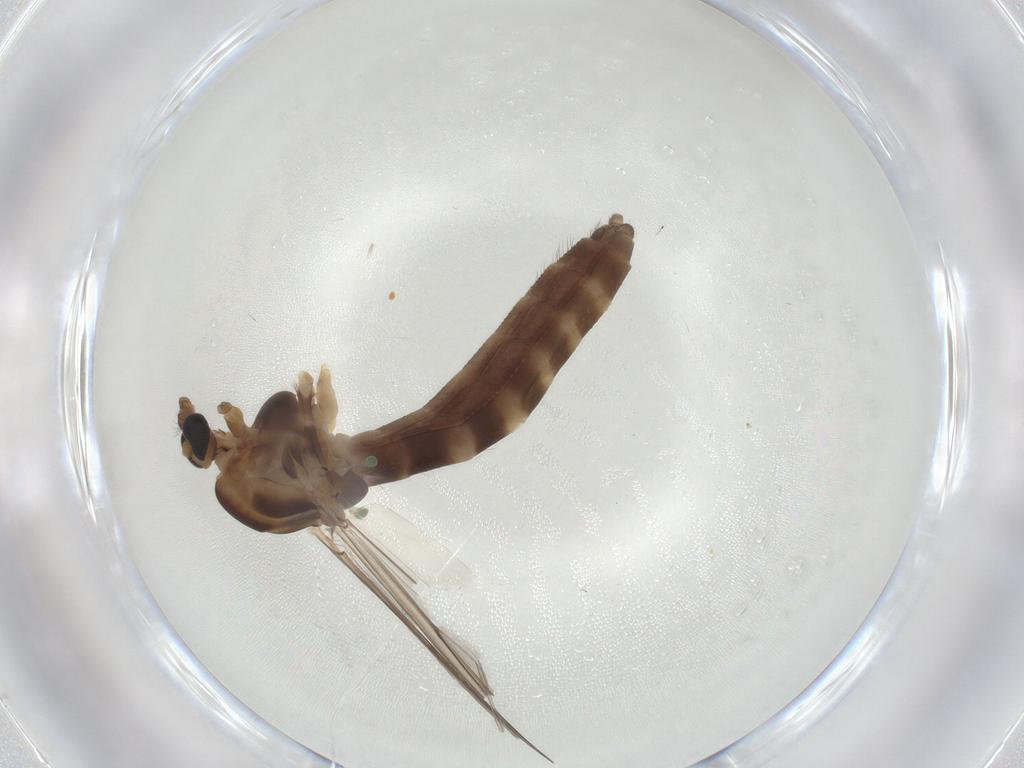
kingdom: Animalia
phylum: Arthropoda
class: Insecta
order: Diptera
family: Chironomidae
